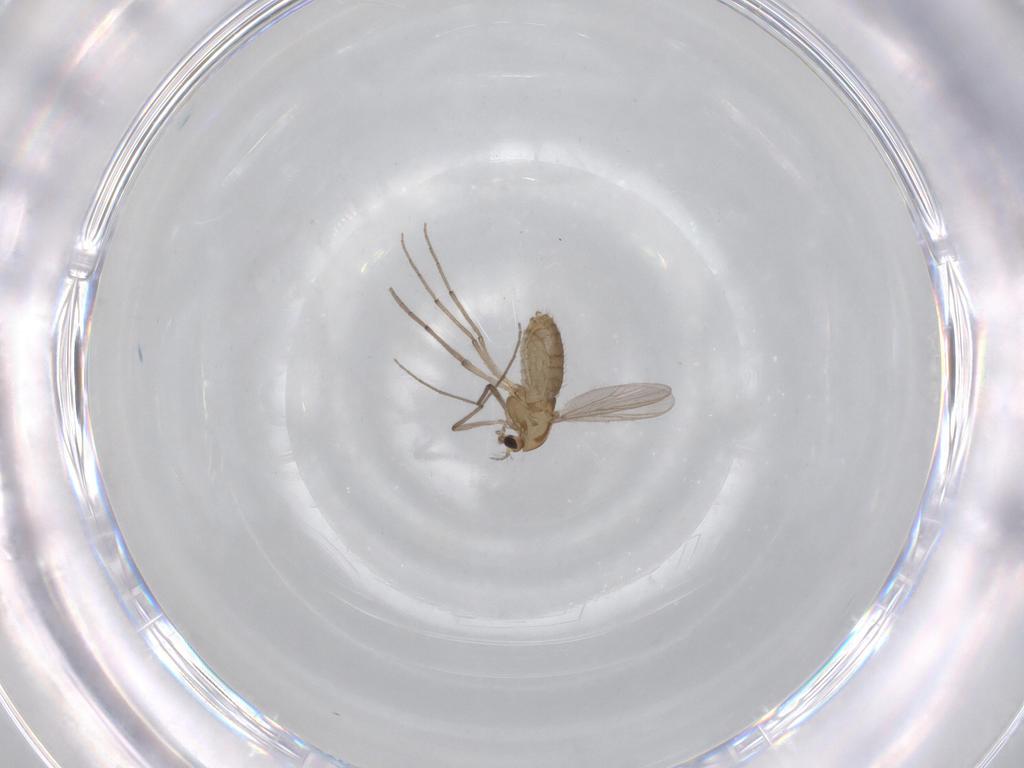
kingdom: Animalia
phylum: Arthropoda
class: Insecta
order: Diptera
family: Chironomidae
